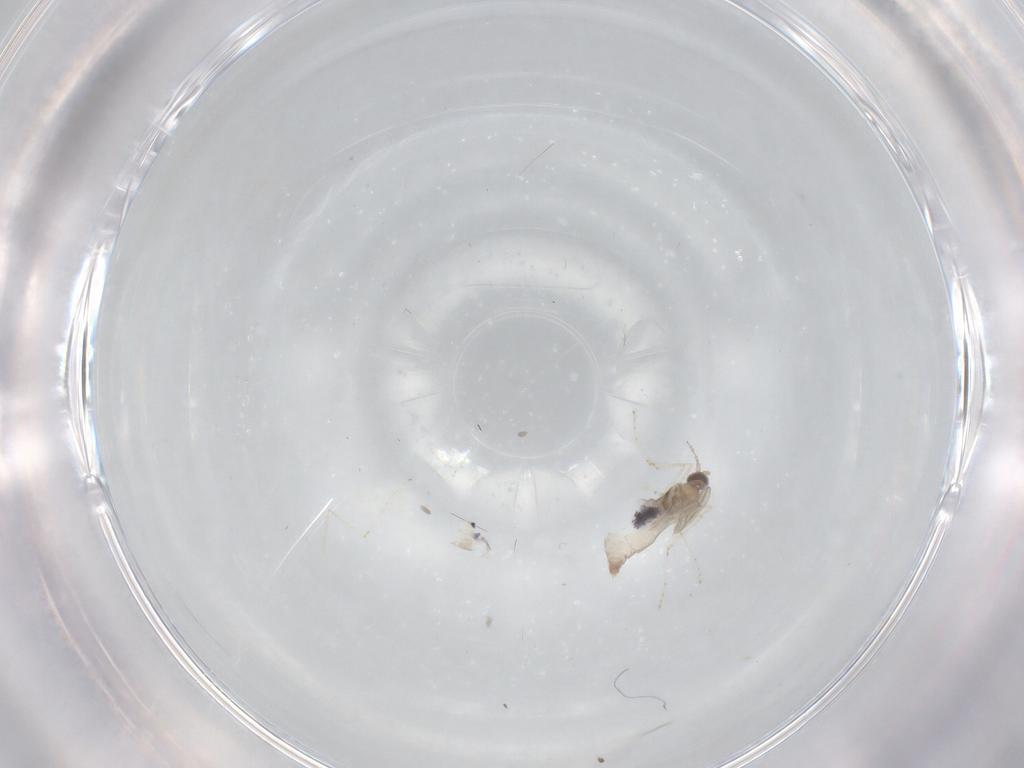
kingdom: Animalia
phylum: Arthropoda
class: Insecta
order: Diptera
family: Cecidomyiidae
